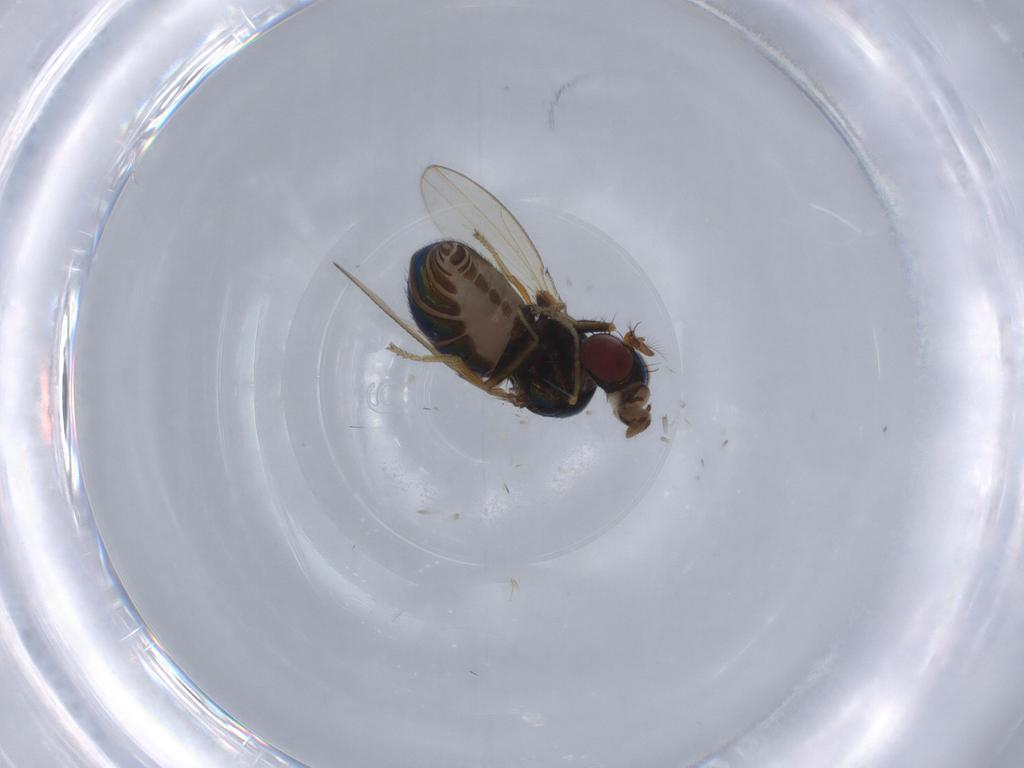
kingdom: Animalia
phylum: Arthropoda
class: Insecta
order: Diptera
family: Ephydridae
